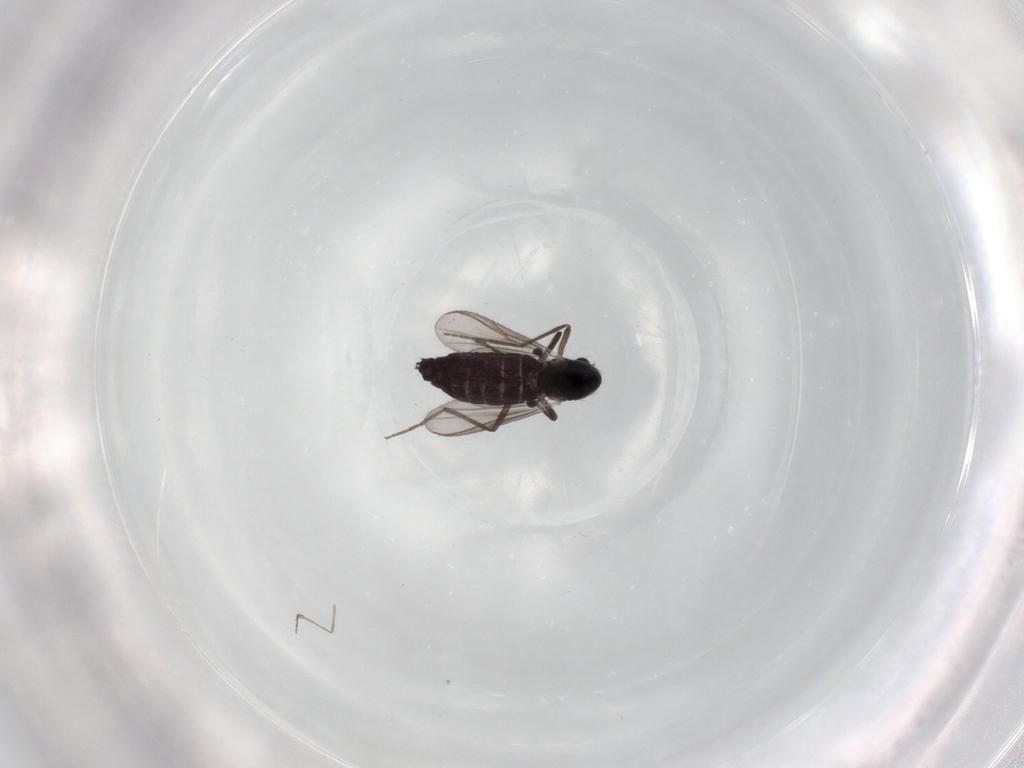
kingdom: Animalia
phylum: Arthropoda
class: Insecta
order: Diptera
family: Chironomidae
